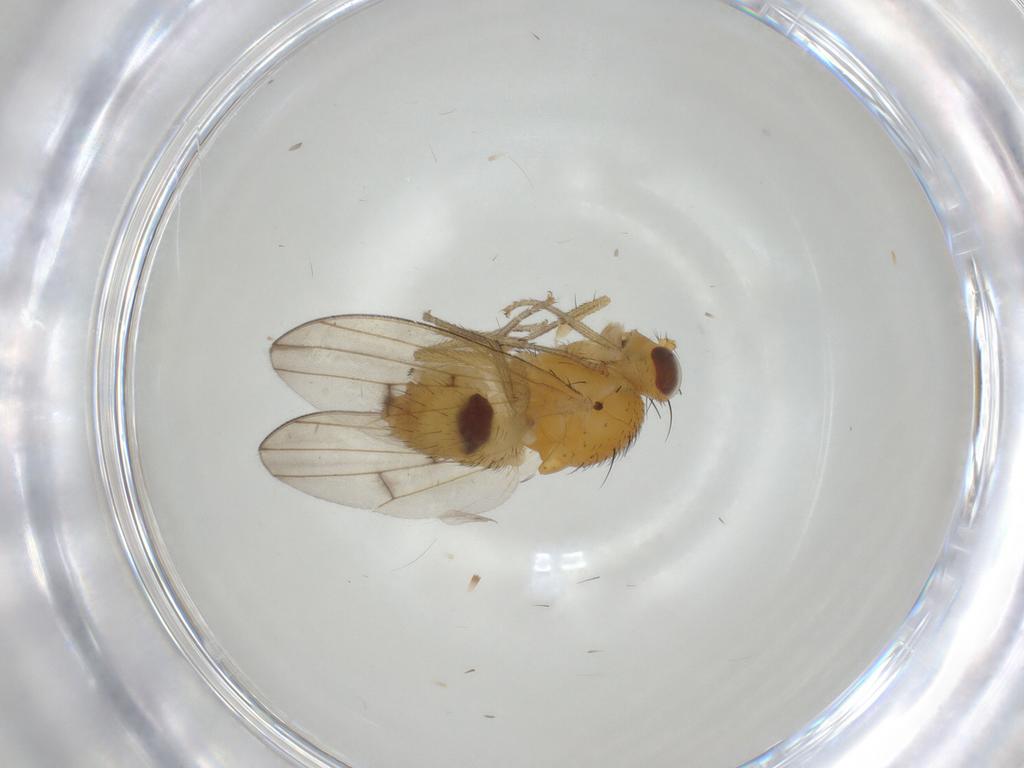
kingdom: Animalia
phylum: Arthropoda
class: Insecta
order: Diptera
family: Lauxaniidae
